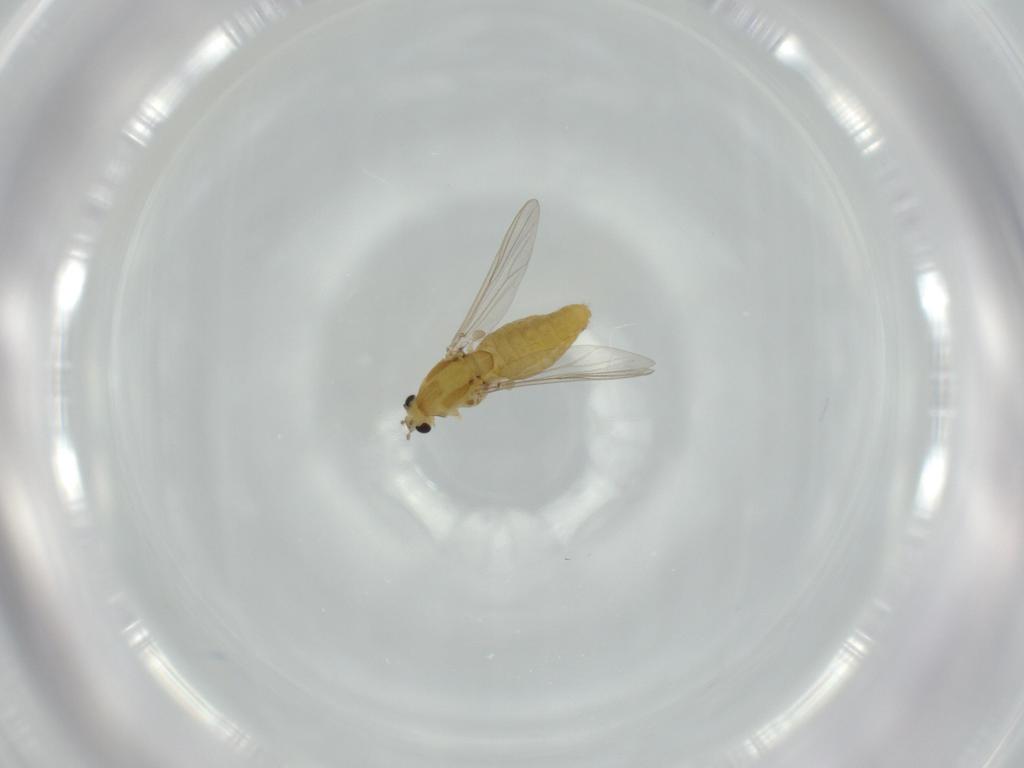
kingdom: Animalia
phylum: Arthropoda
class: Insecta
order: Diptera
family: Chironomidae
